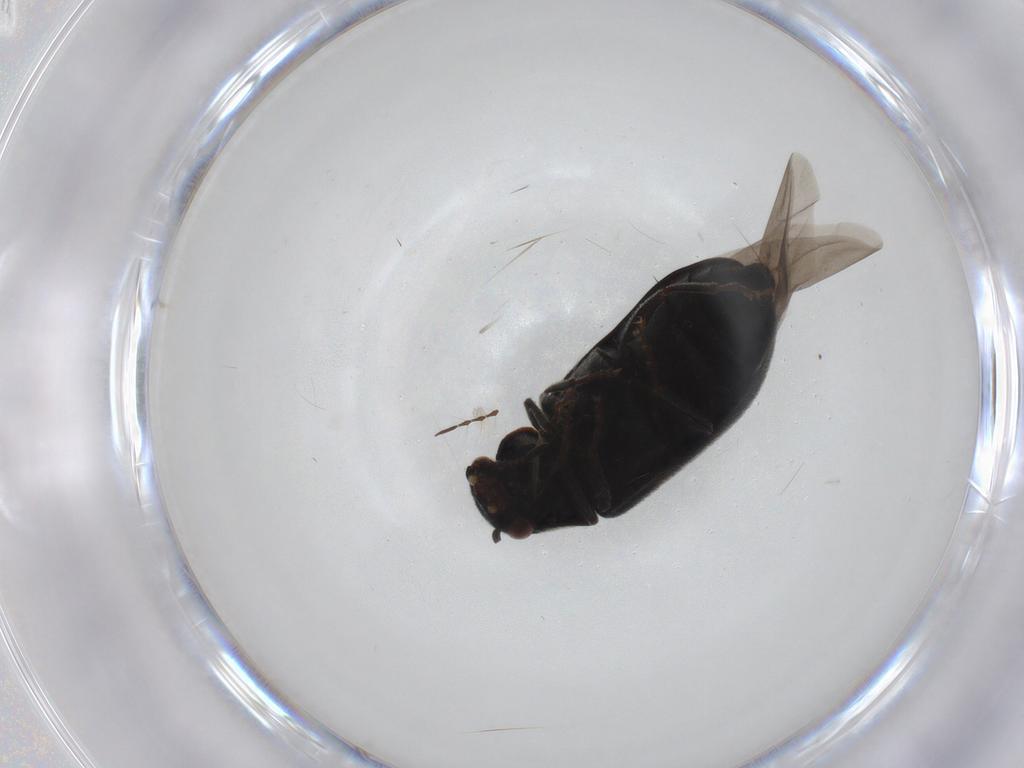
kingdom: Animalia
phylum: Arthropoda
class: Insecta
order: Coleoptera
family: Ptinidae
